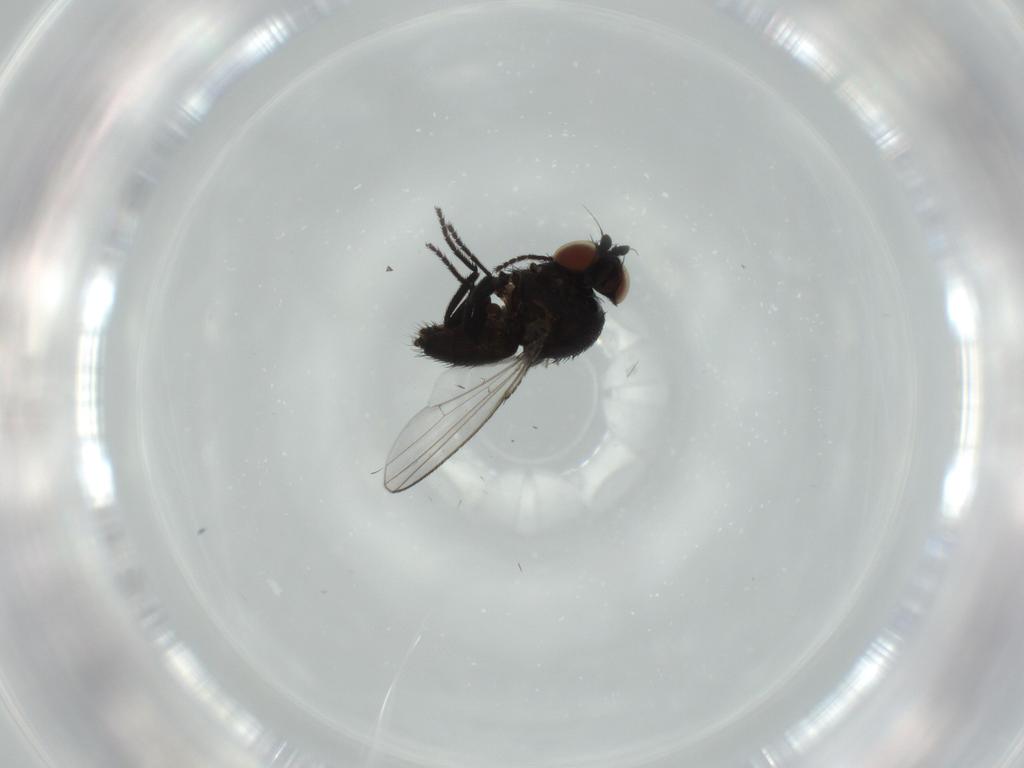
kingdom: Animalia
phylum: Arthropoda
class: Insecta
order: Diptera
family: Milichiidae
